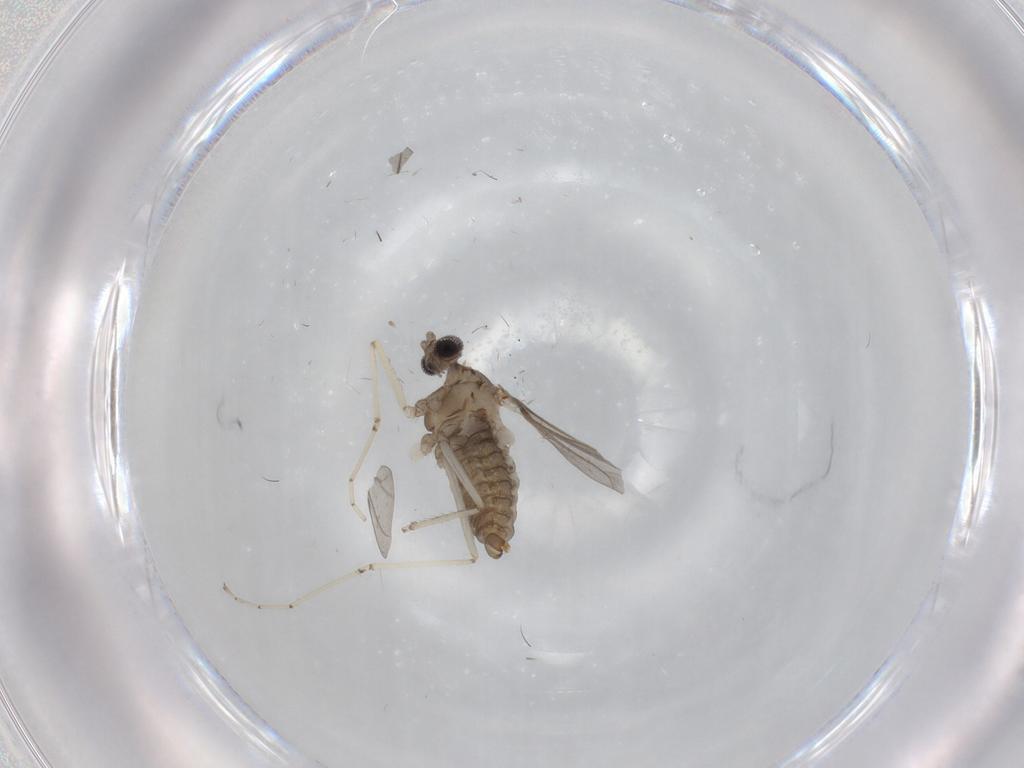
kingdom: Animalia
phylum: Arthropoda
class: Insecta
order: Diptera
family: Cecidomyiidae
